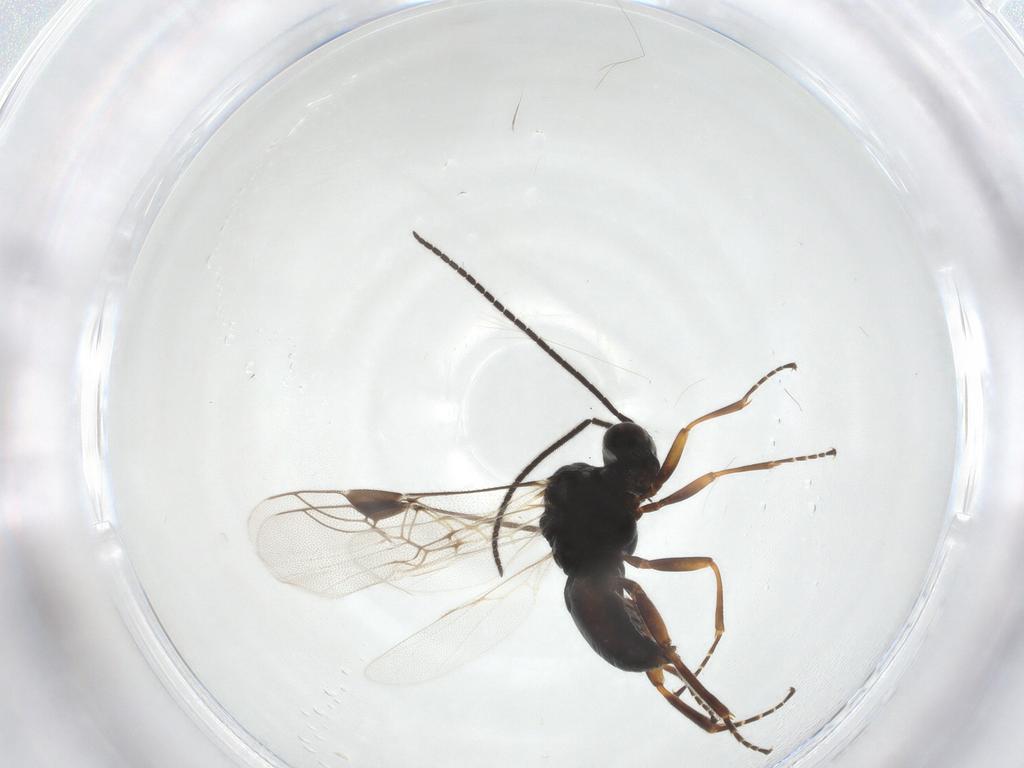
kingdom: Animalia
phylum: Arthropoda
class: Insecta
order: Hymenoptera
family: Braconidae
